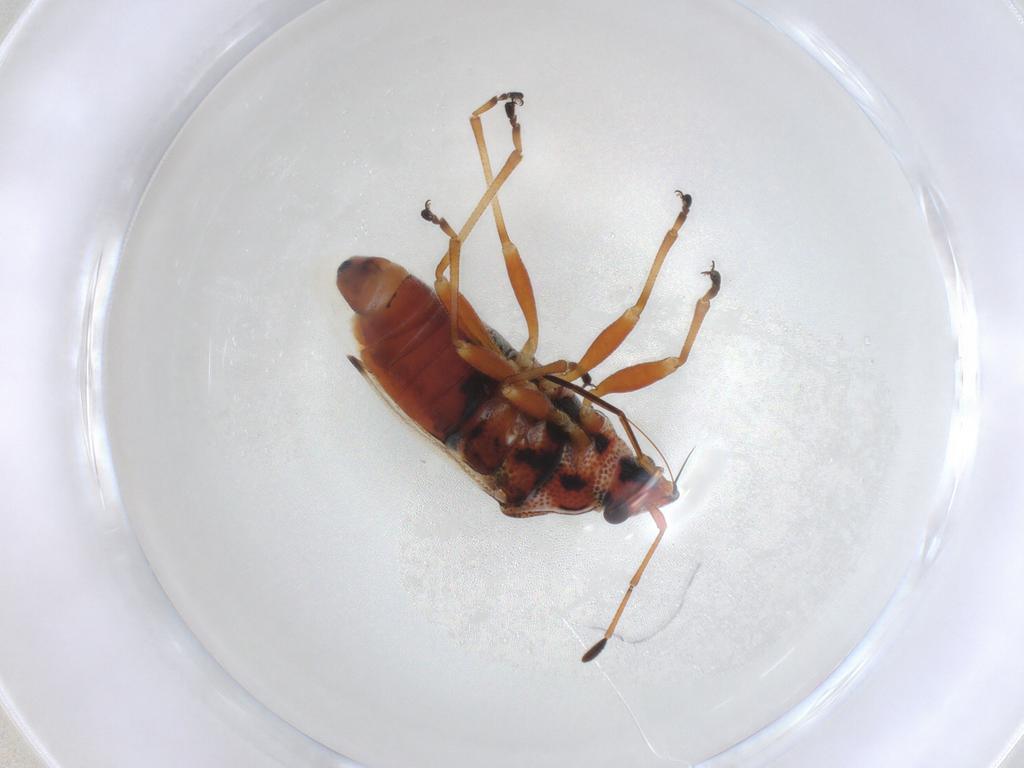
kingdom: Animalia
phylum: Arthropoda
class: Insecta
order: Hemiptera
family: Lygaeidae
